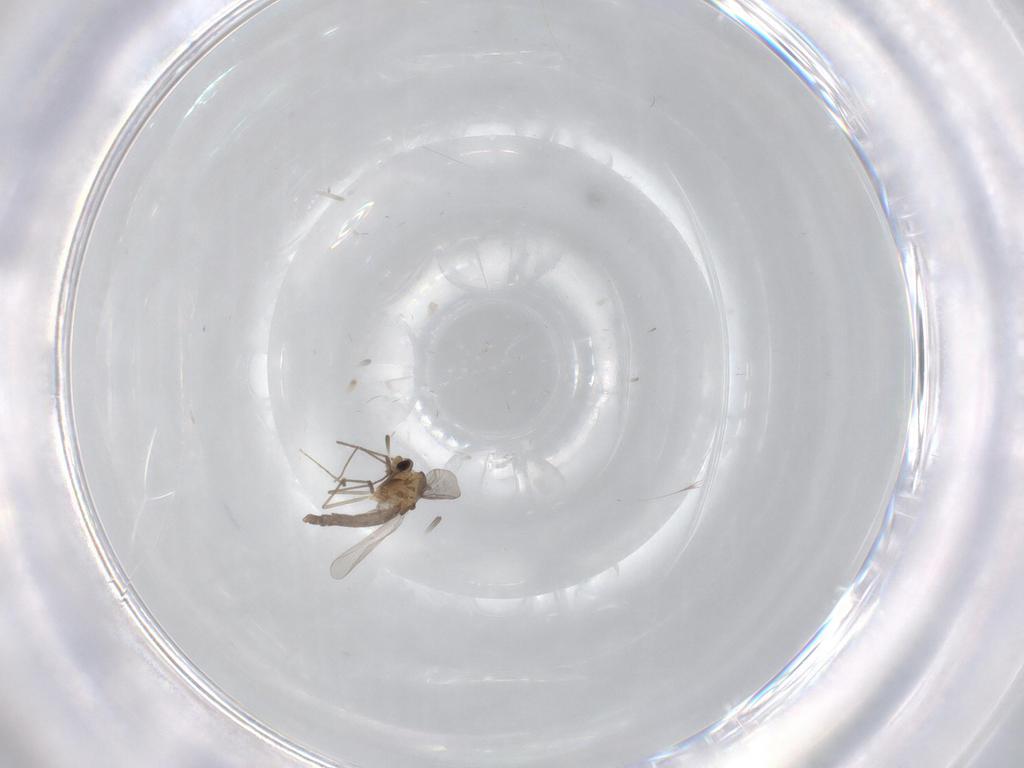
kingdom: Animalia
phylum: Arthropoda
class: Insecta
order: Diptera
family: Chironomidae
